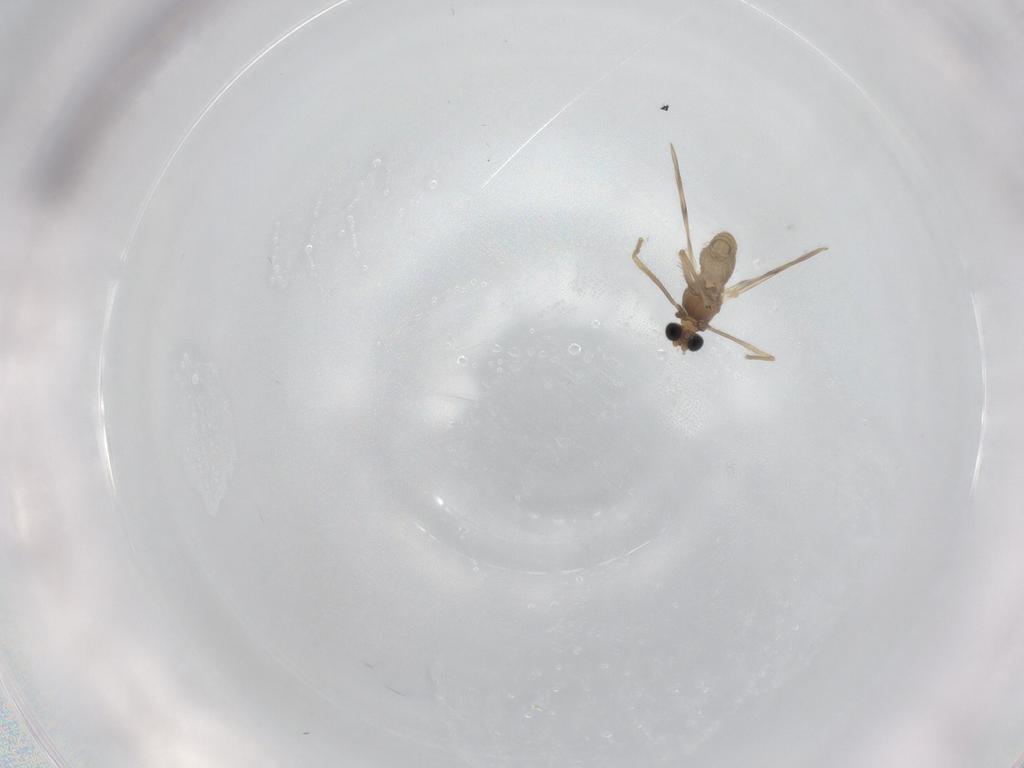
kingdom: Animalia
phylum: Arthropoda
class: Insecta
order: Diptera
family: Chironomidae
